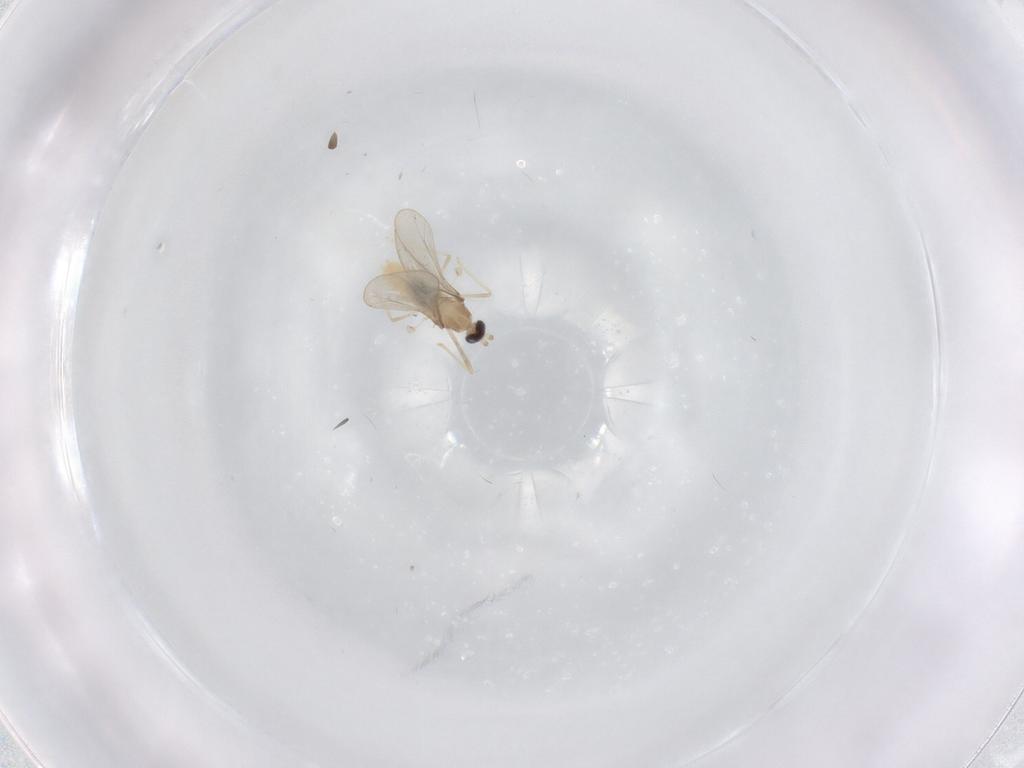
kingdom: Animalia
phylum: Arthropoda
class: Insecta
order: Diptera
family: Cecidomyiidae
